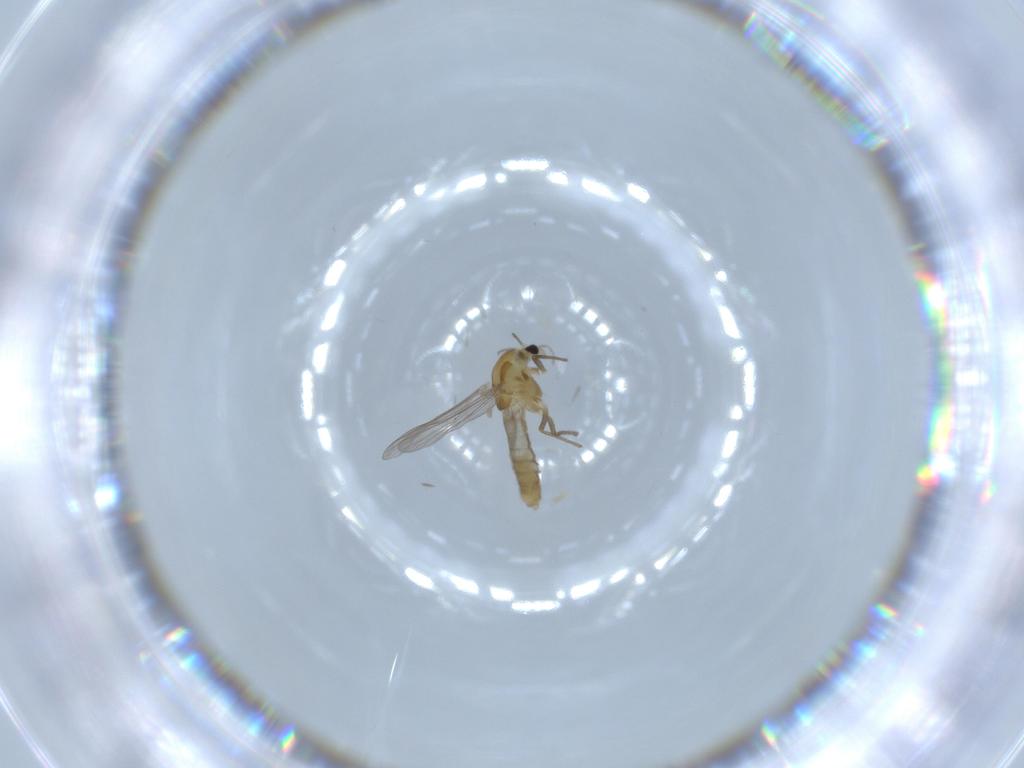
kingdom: Animalia
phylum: Arthropoda
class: Insecta
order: Diptera
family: Chironomidae
